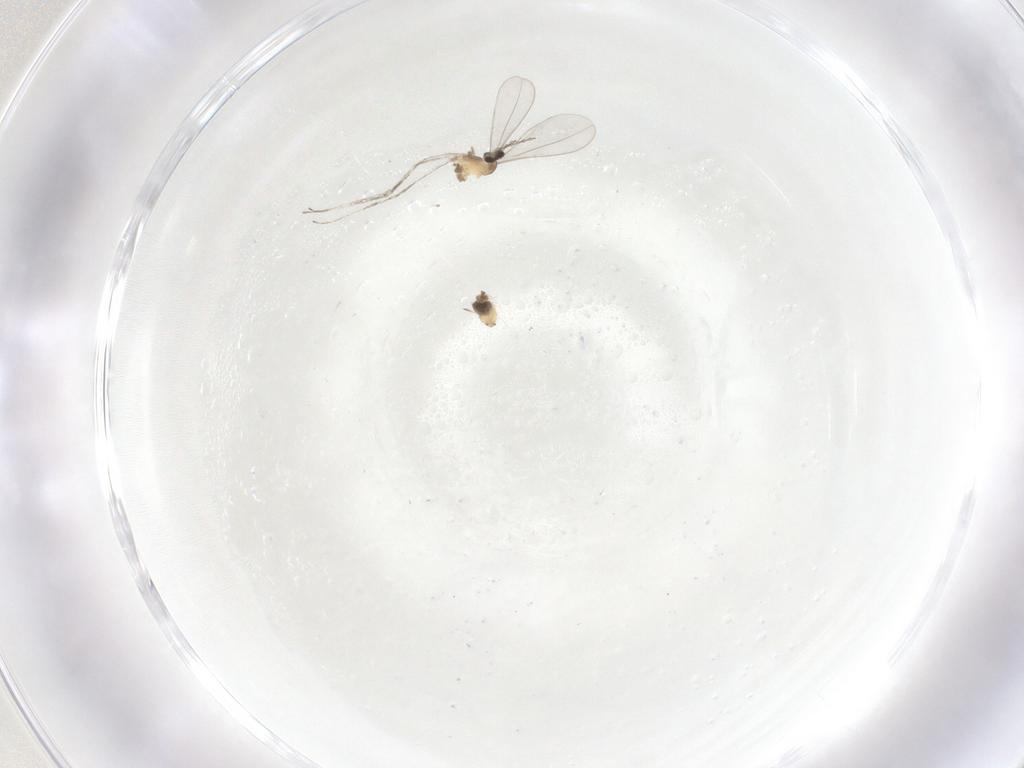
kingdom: Animalia
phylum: Arthropoda
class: Insecta
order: Diptera
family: Cecidomyiidae
